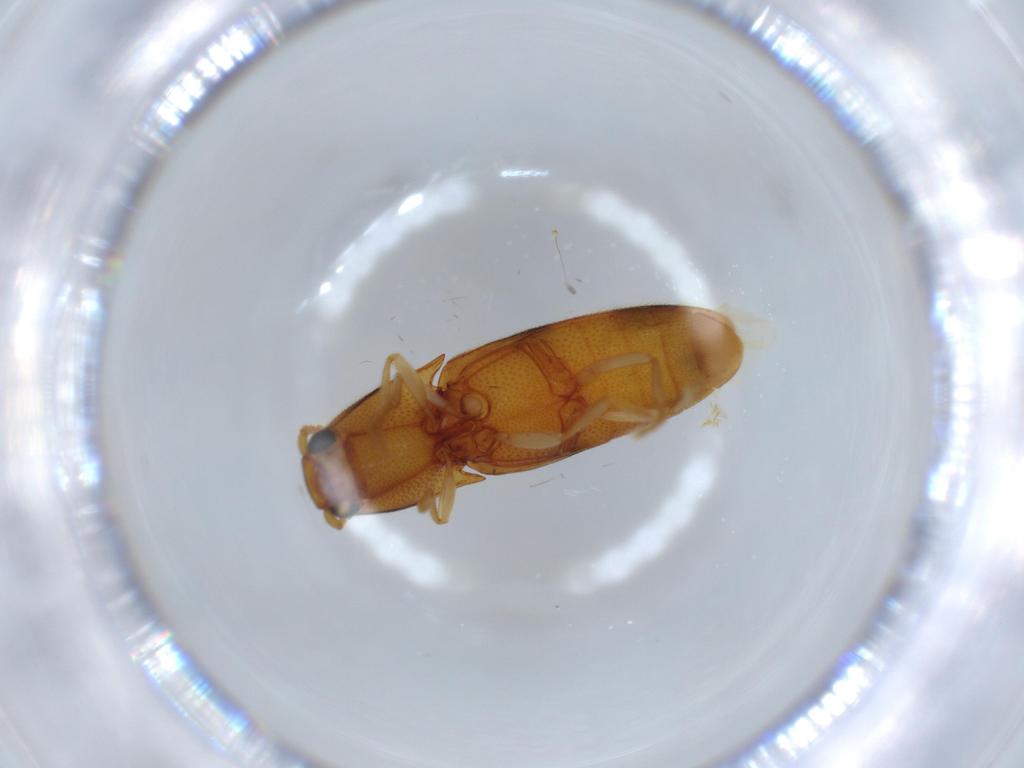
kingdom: Animalia
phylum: Arthropoda
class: Insecta
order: Coleoptera
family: Elateridae
